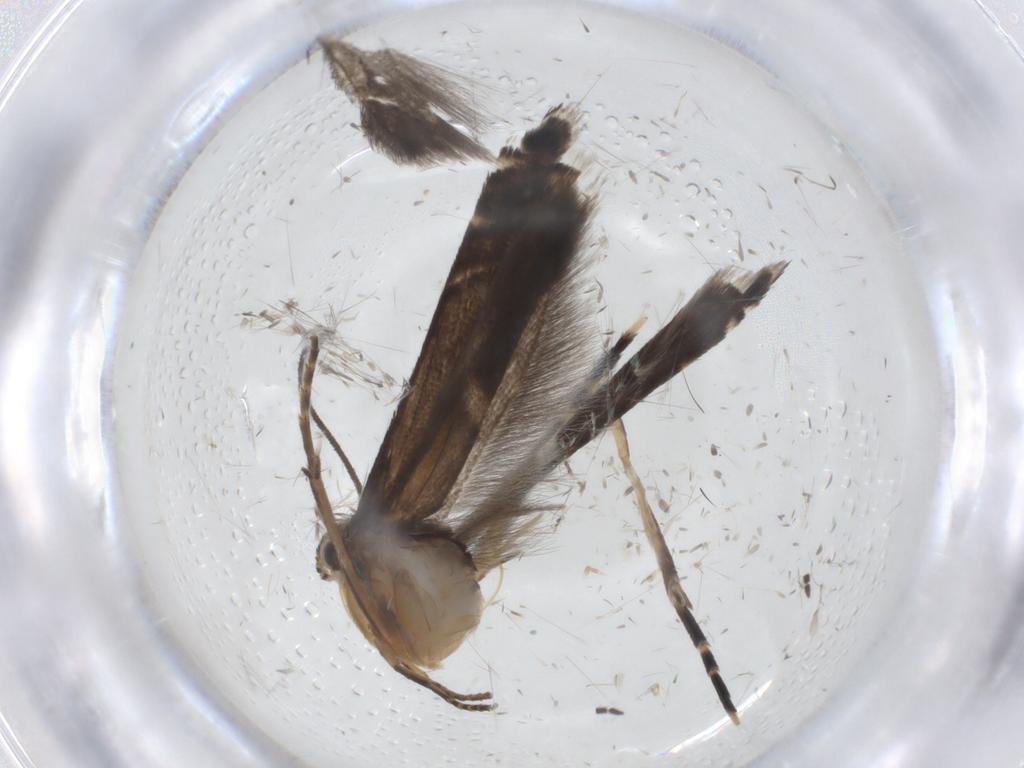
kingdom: Animalia
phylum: Arthropoda
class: Insecta
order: Lepidoptera
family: Glyphipterigidae
